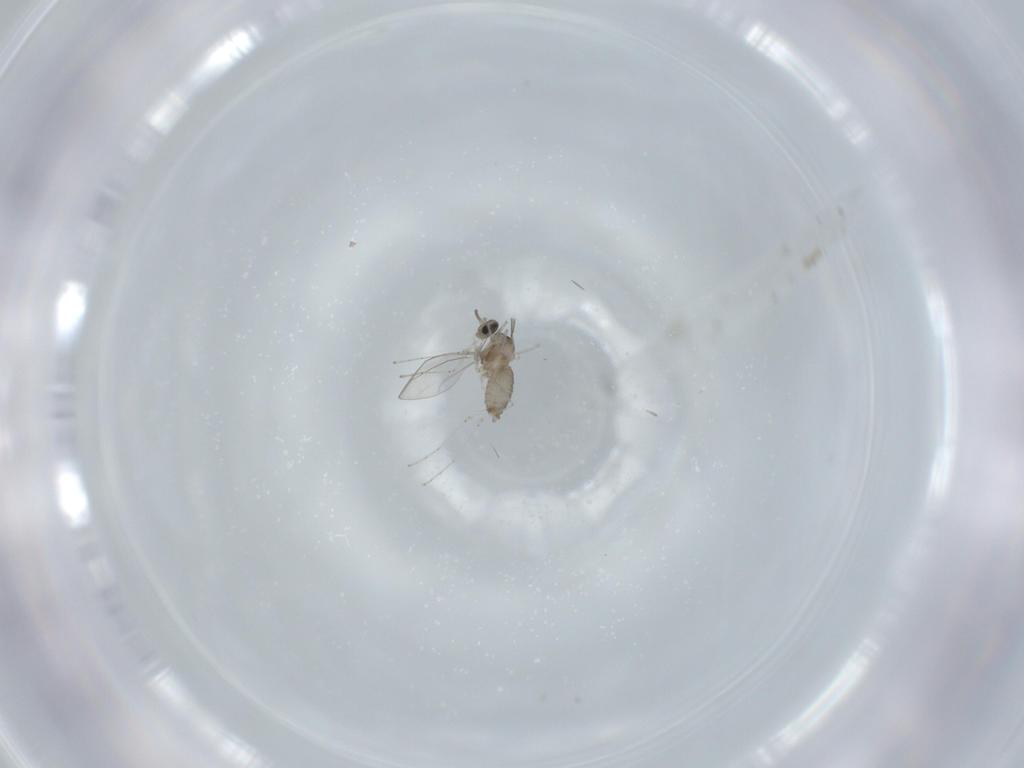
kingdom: Animalia
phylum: Arthropoda
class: Insecta
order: Diptera
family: Cecidomyiidae
